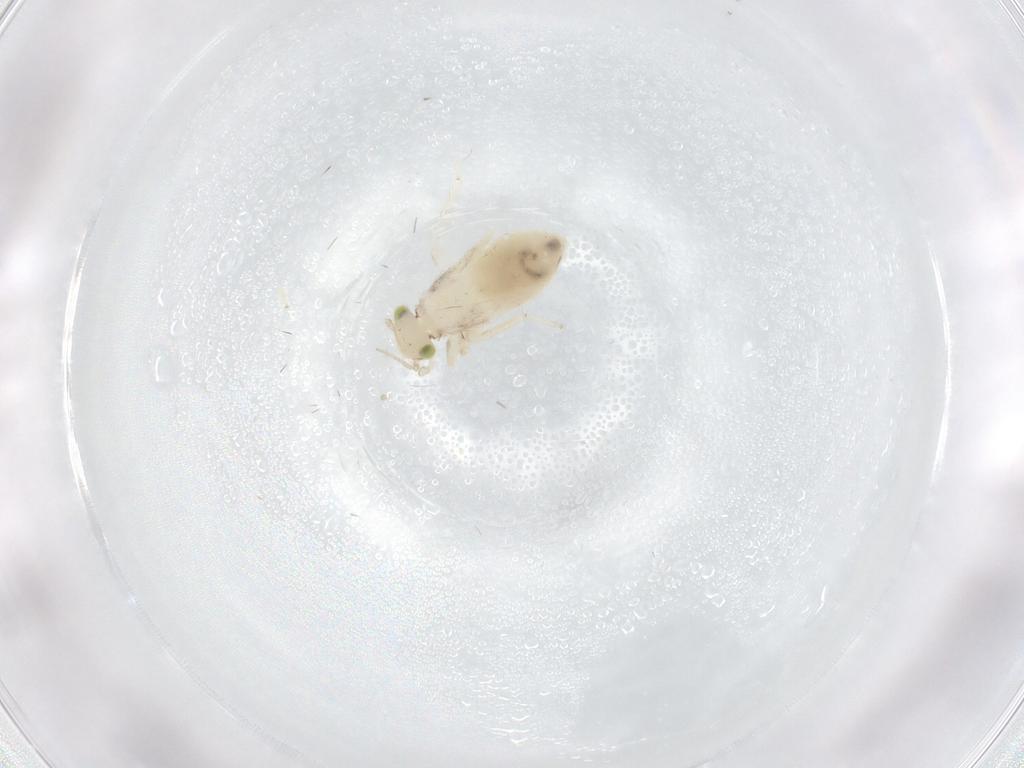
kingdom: Animalia
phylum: Arthropoda
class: Insecta
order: Psocodea
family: Lepidopsocidae
